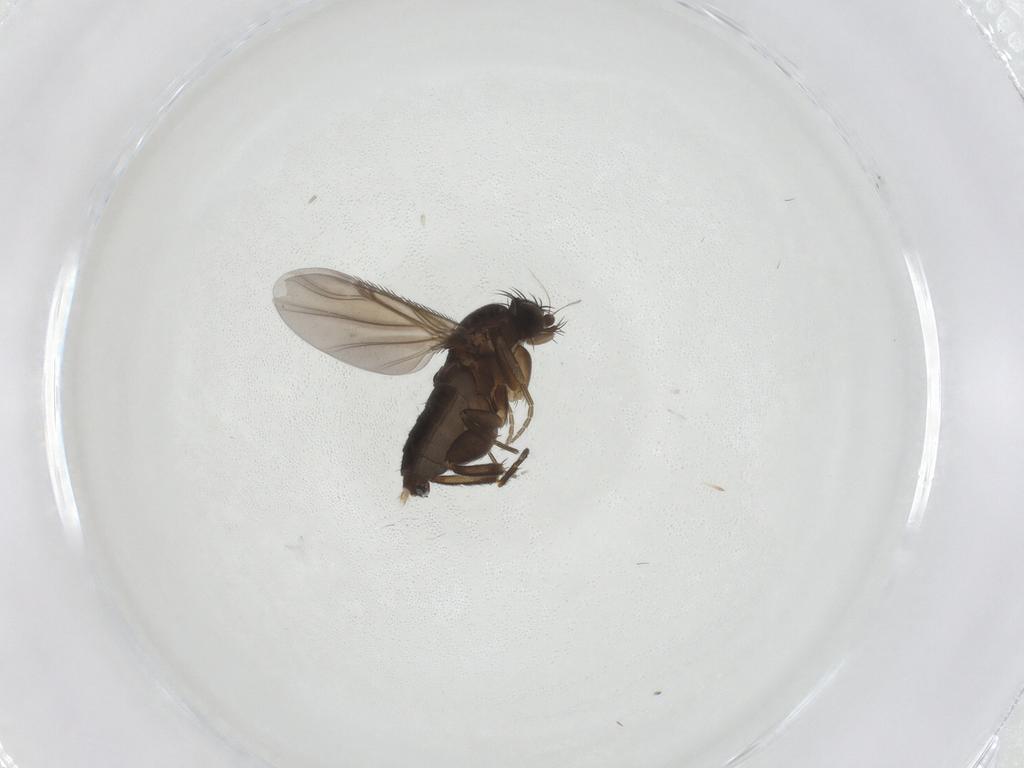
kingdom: Animalia
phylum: Arthropoda
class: Insecta
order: Diptera
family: Phoridae
